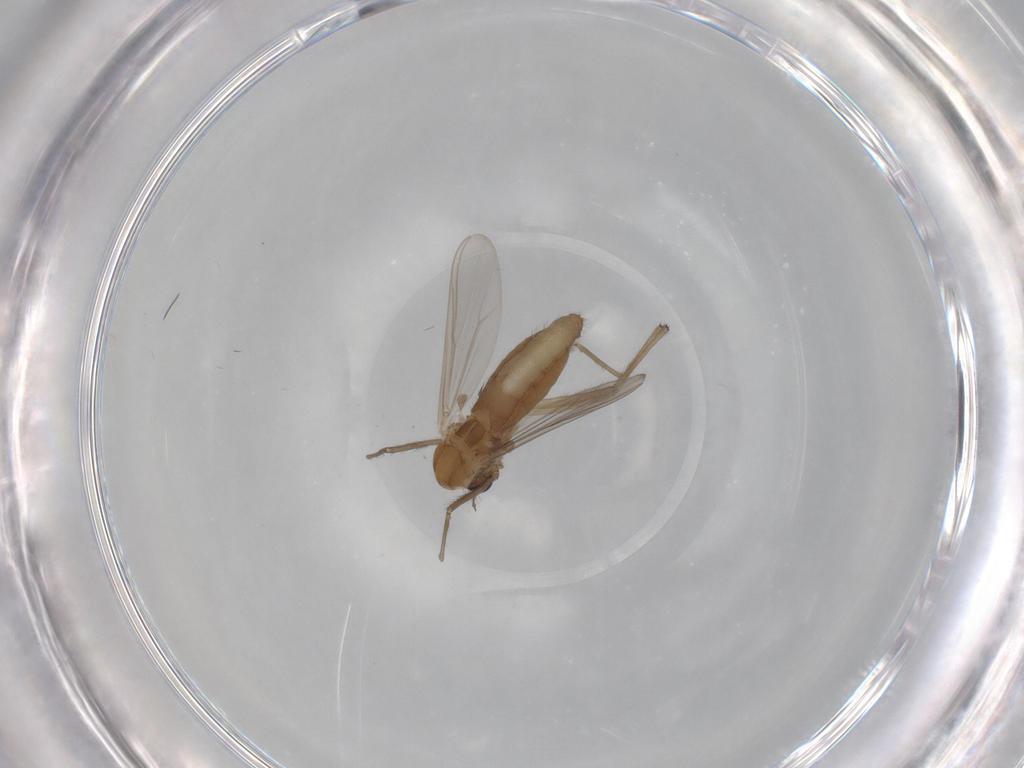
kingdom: Animalia
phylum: Arthropoda
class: Insecta
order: Diptera
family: Chironomidae
